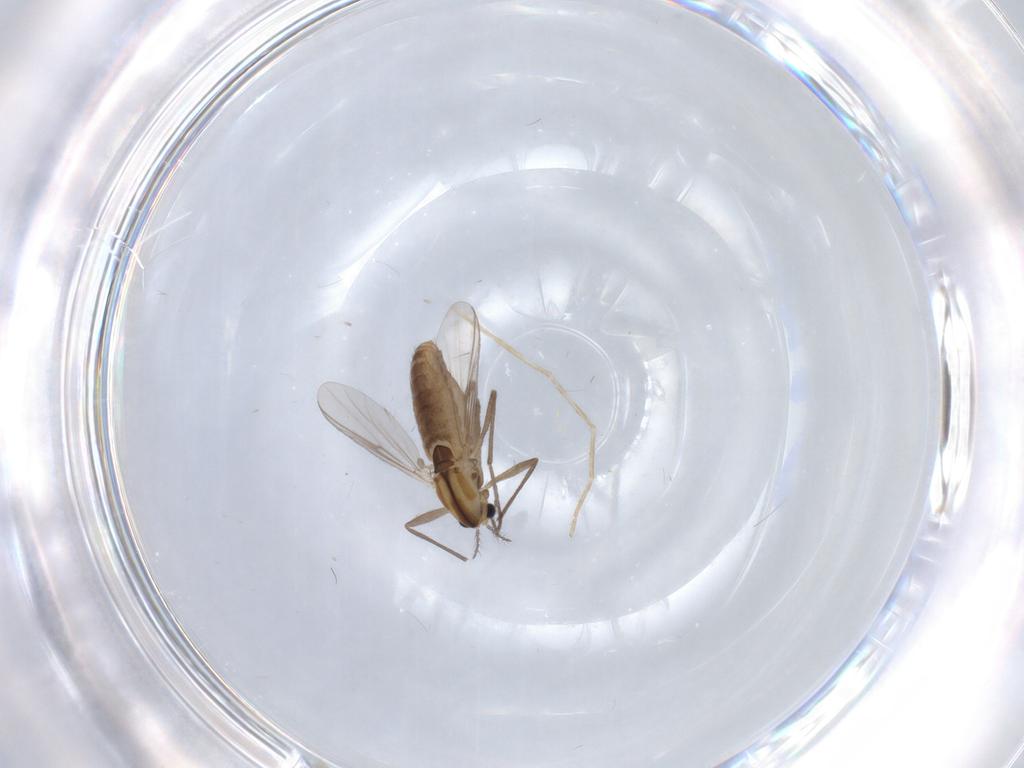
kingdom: Animalia
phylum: Arthropoda
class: Insecta
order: Diptera
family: Chironomidae
